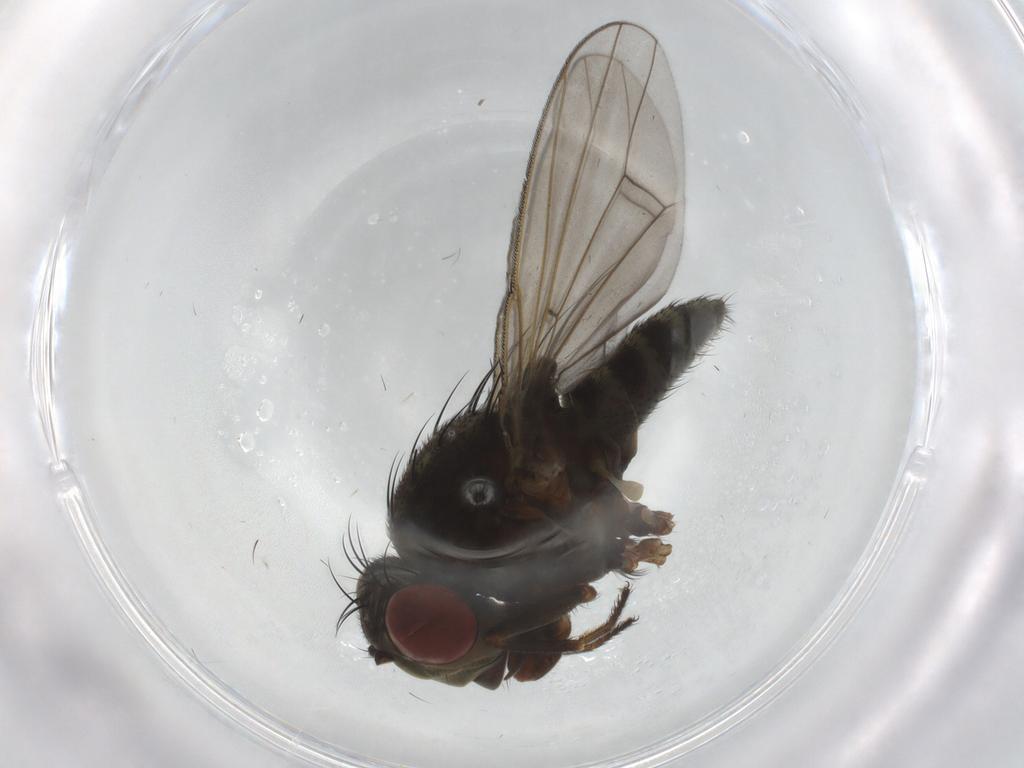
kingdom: Animalia
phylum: Arthropoda
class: Insecta
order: Diptera
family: Ephydridae
